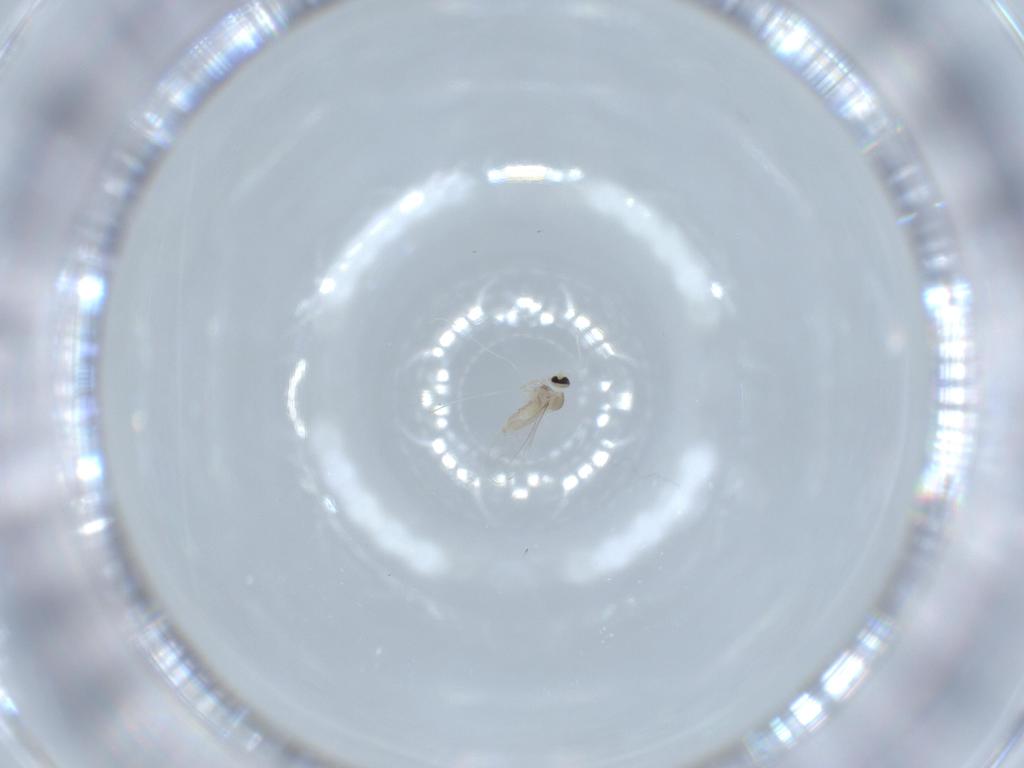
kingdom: Animalia
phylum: Arthropoda
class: Insecta
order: Diptera
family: Cecidomyiidae
